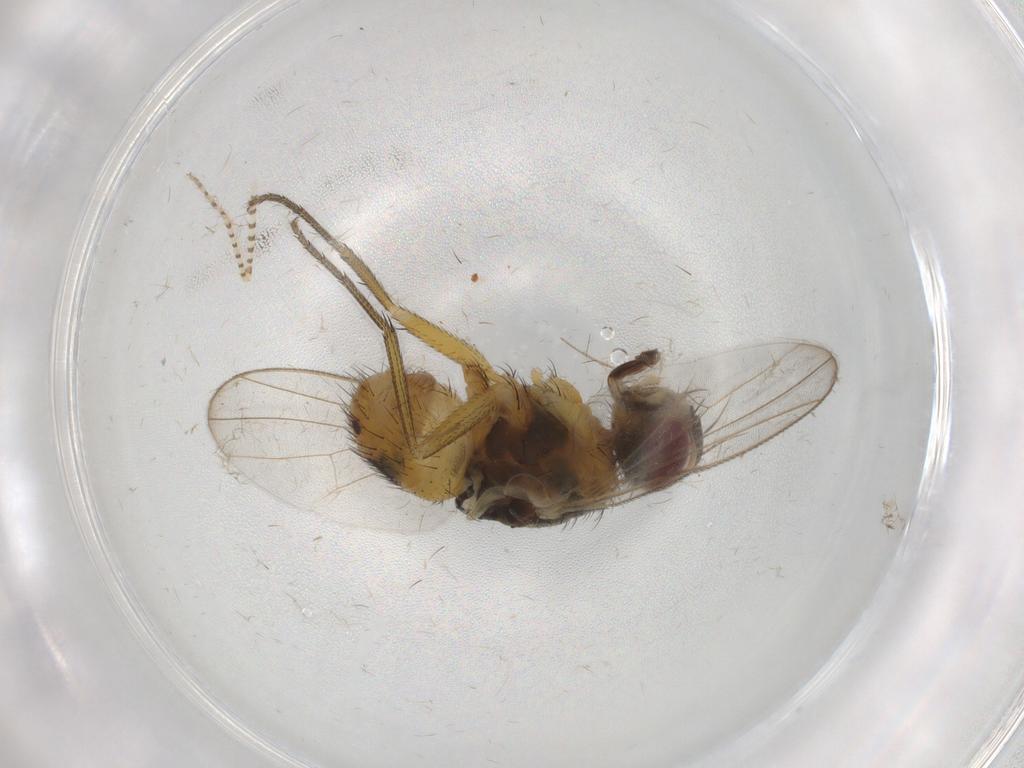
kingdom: Animalia
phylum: Arthropoda
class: Insecta
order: Diptera
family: Muscidae
